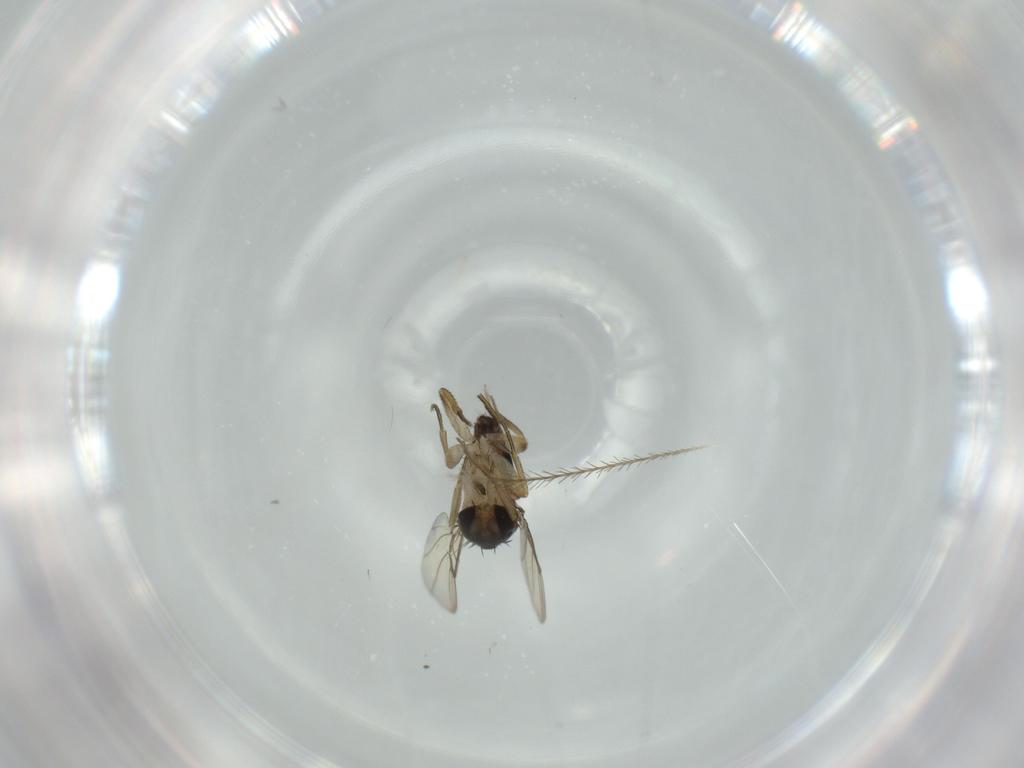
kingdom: Animalia
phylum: Arthropoda
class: Insecta
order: Diptera
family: Phoridae
